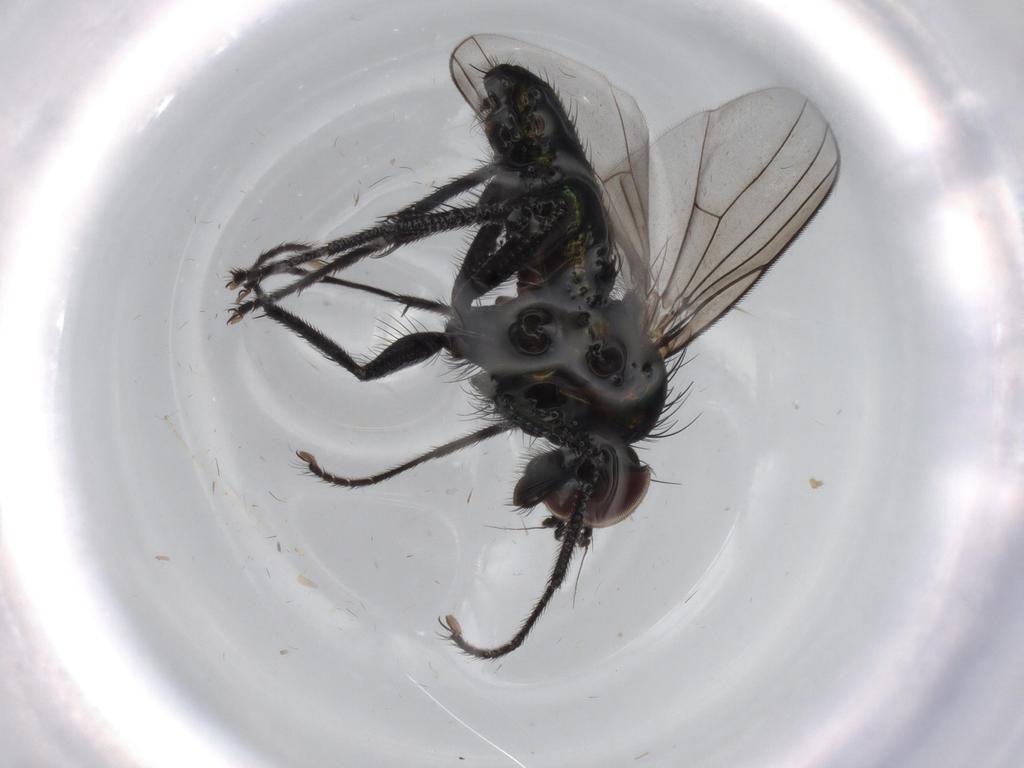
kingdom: Animalia
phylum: Arthropoda
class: Insecta
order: Diptera
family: Dolichopodidae
